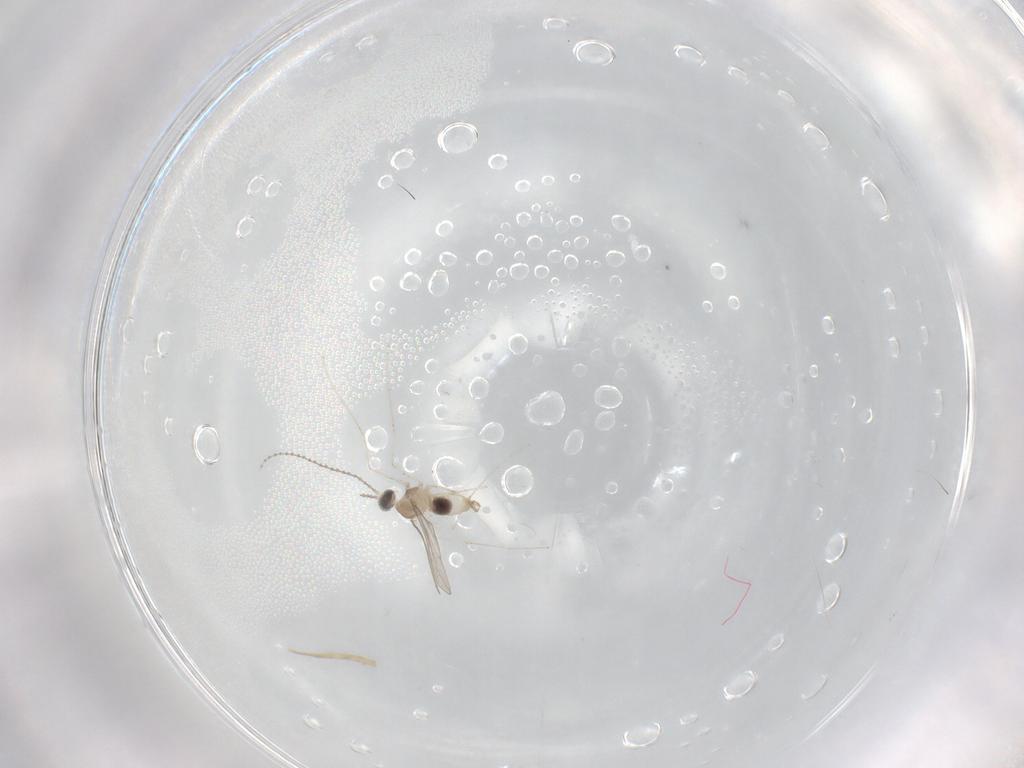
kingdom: Animalia
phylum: Arthropoda
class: Insecta
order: Diptera
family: Cecidomyiidae
